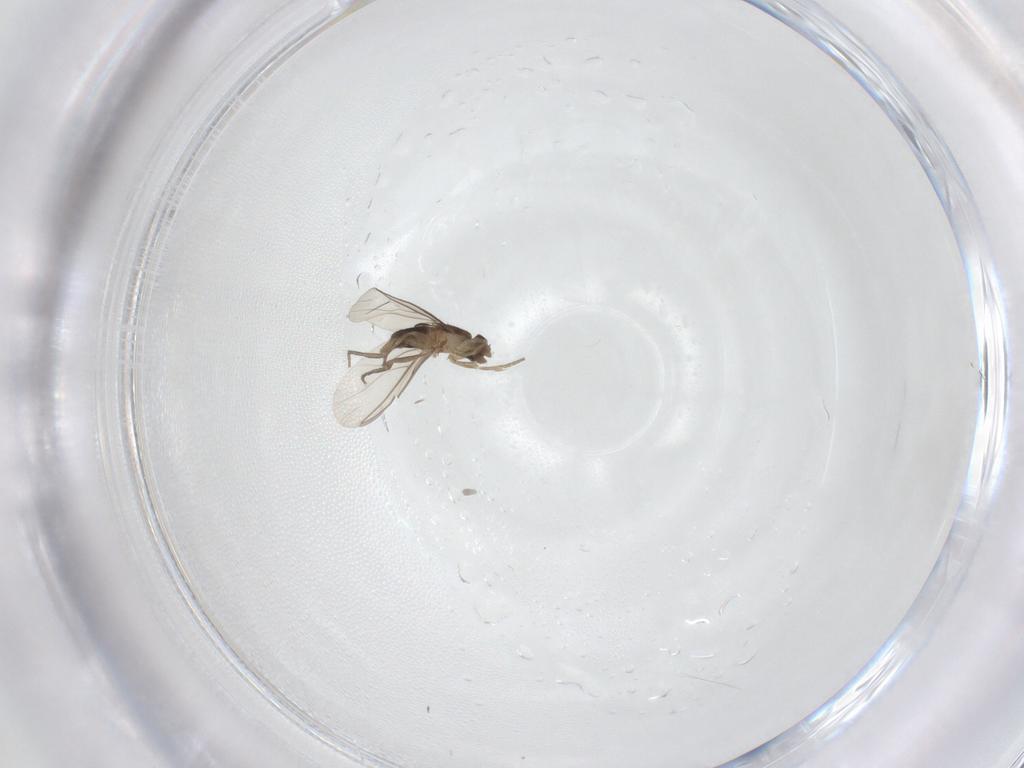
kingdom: Animalia
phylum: Arthropoda
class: Insecta
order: Diptera
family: Phoridae
